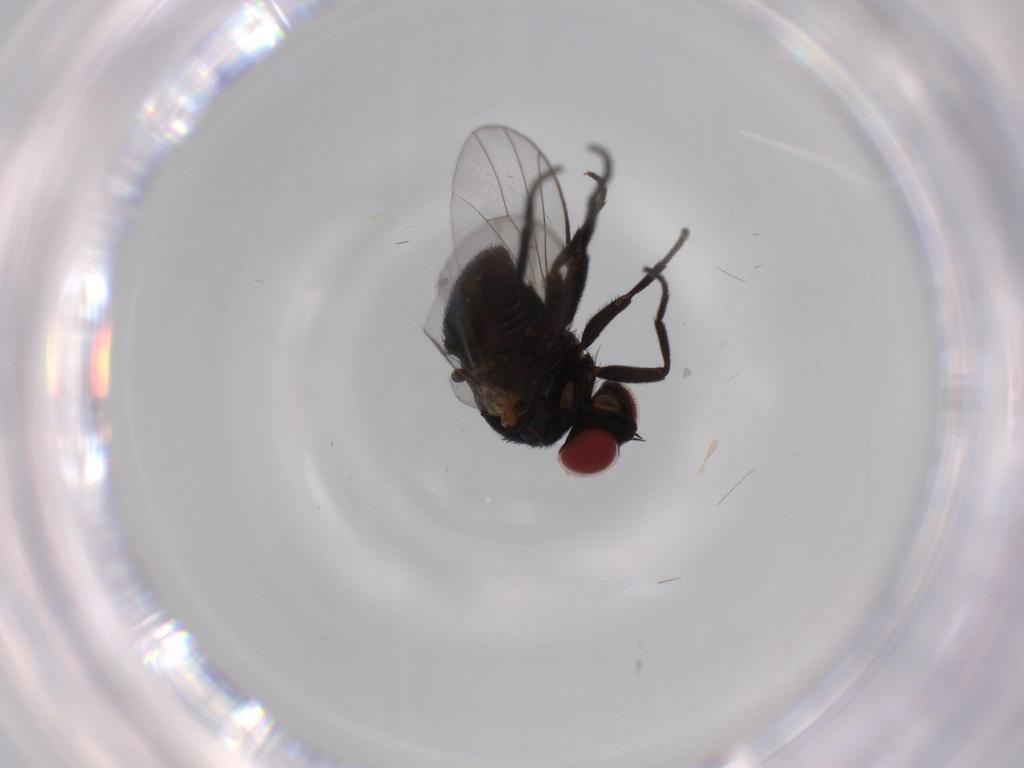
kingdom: Animalia
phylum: Arthropoda
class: Insecta
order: Diptera
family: Agromyzidae
